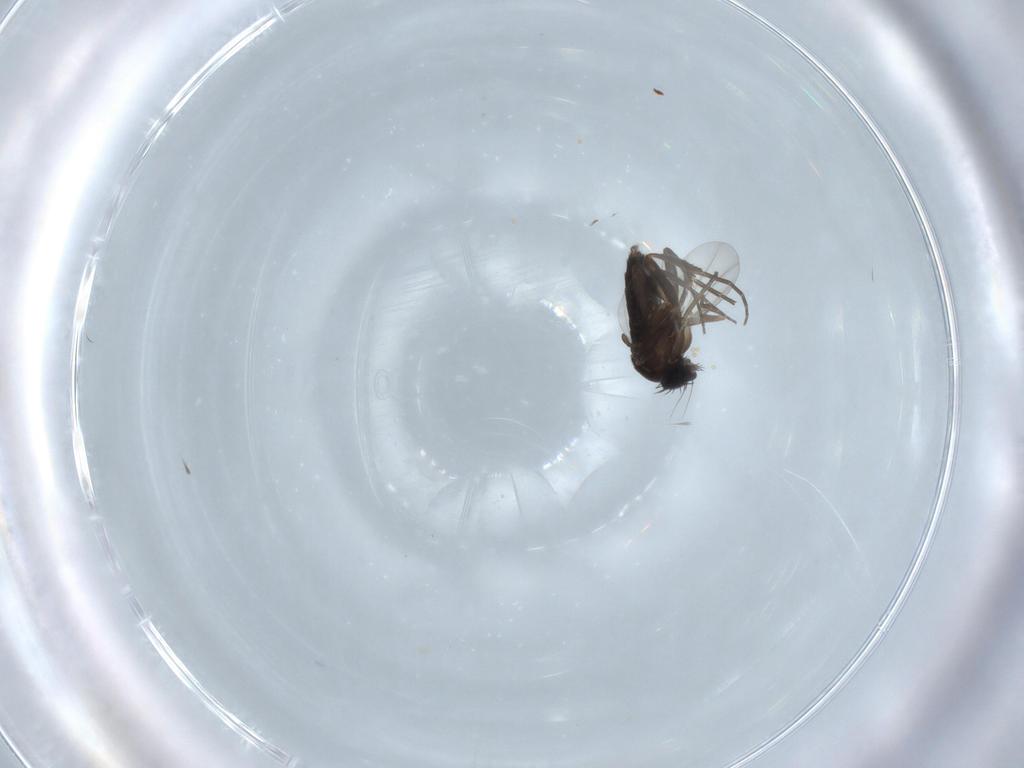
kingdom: Animalia
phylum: Arthropoda
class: Insecta
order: Diptera
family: Phoridae
